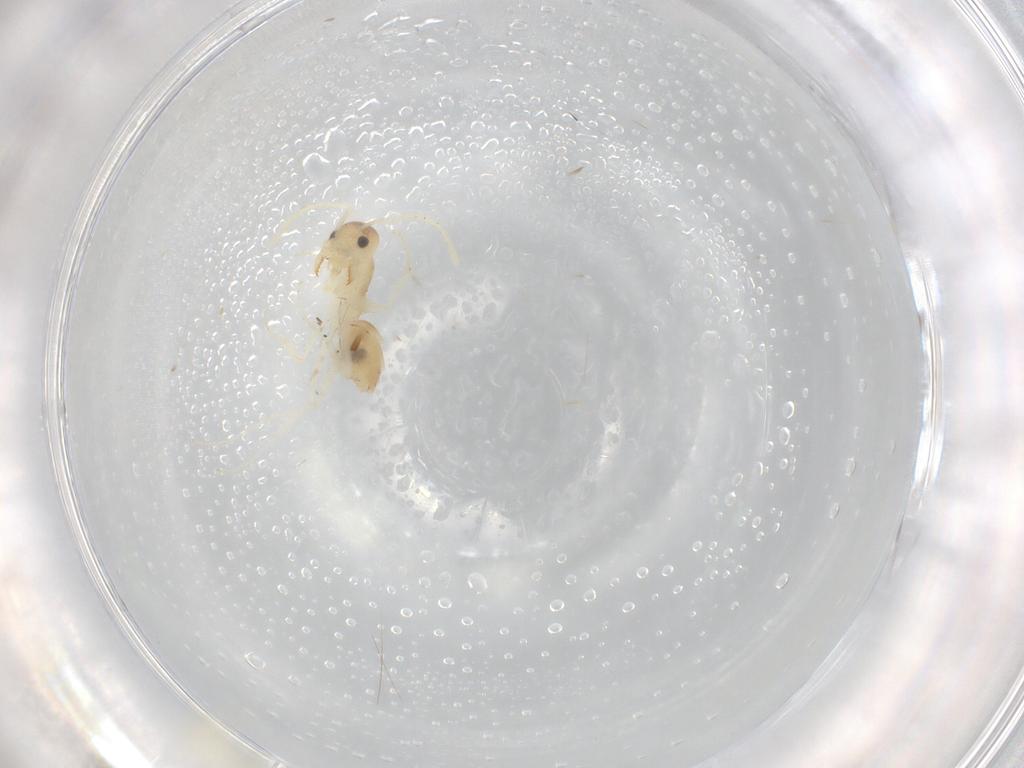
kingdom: Animalia
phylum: Arthropoda
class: Insecta
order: Hymenoptera
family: Formicidae
